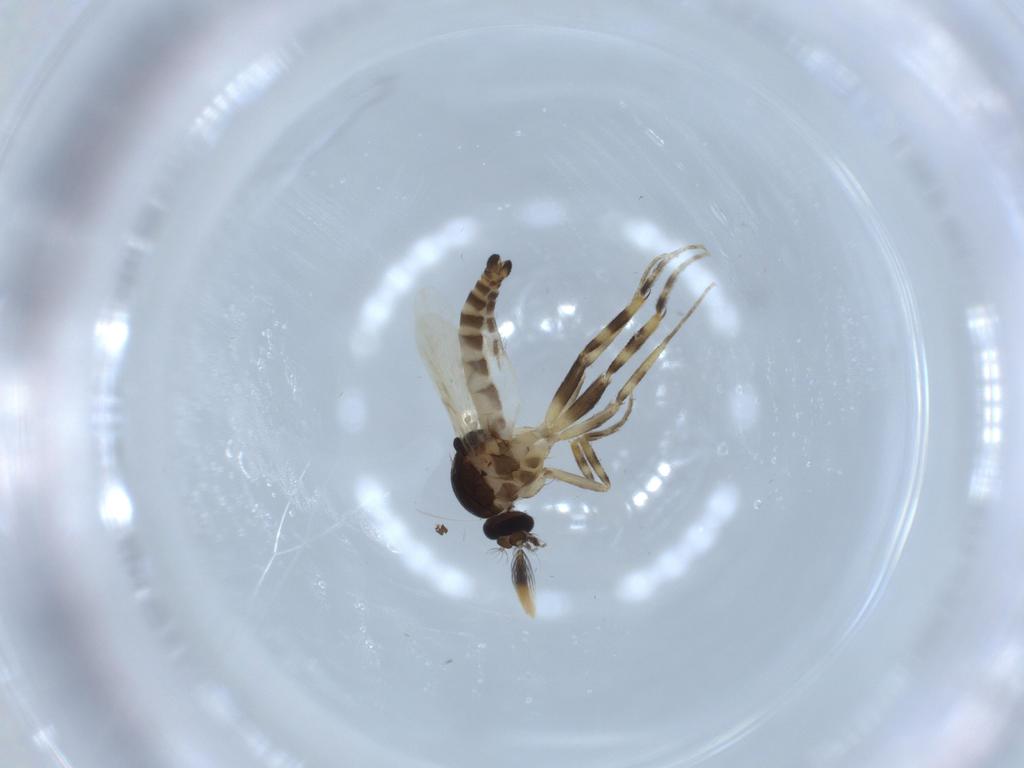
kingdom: Animalia
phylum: Arthropoda
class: Insecta
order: Diptera
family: Ceratopogonidae
